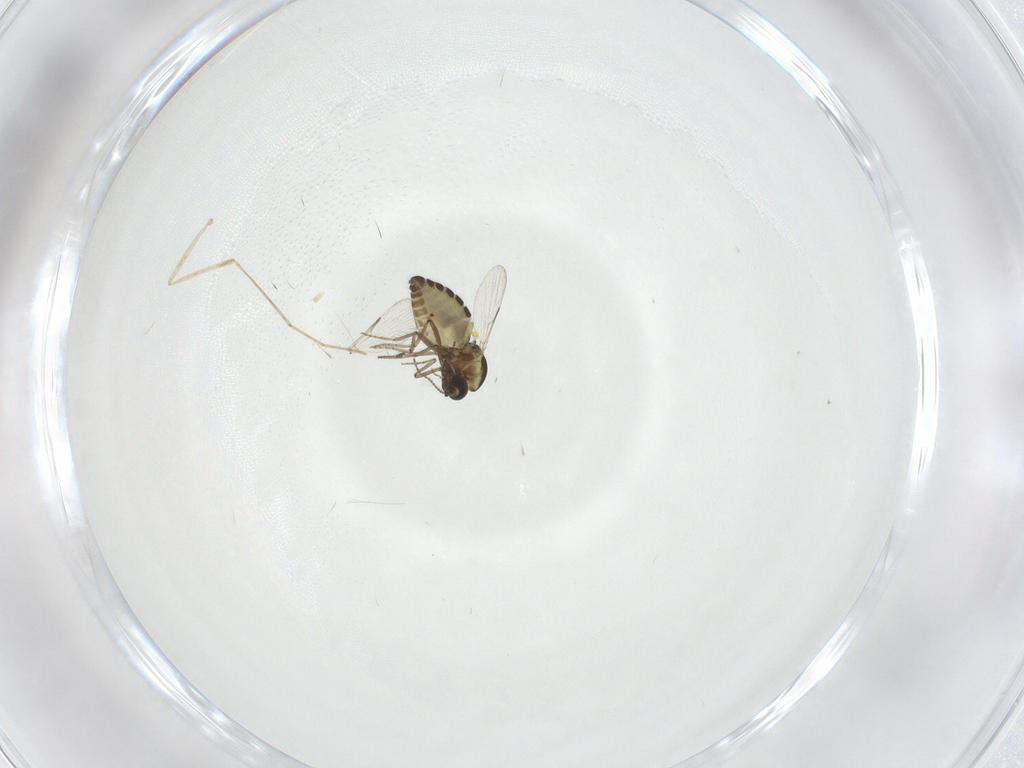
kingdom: Animalia
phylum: Arthropoda
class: Insecta
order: Diptera
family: Ceratopogonidae
